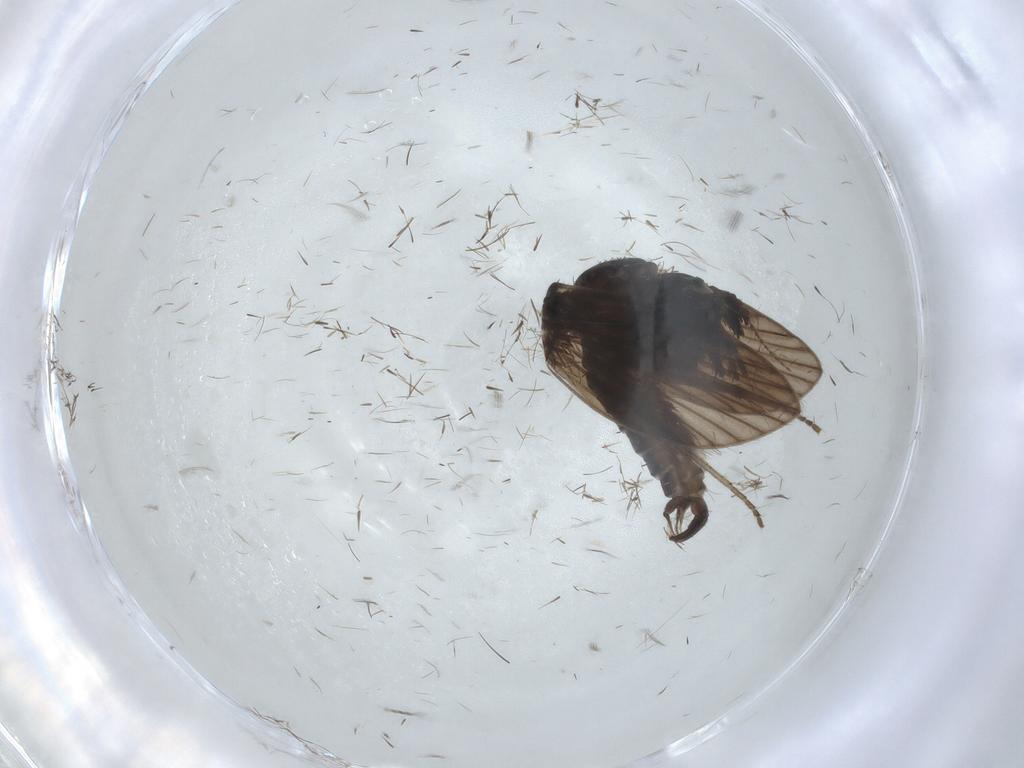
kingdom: Animalia
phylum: Arthropoda
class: Insecta
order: Diptera
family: Psychodidae
